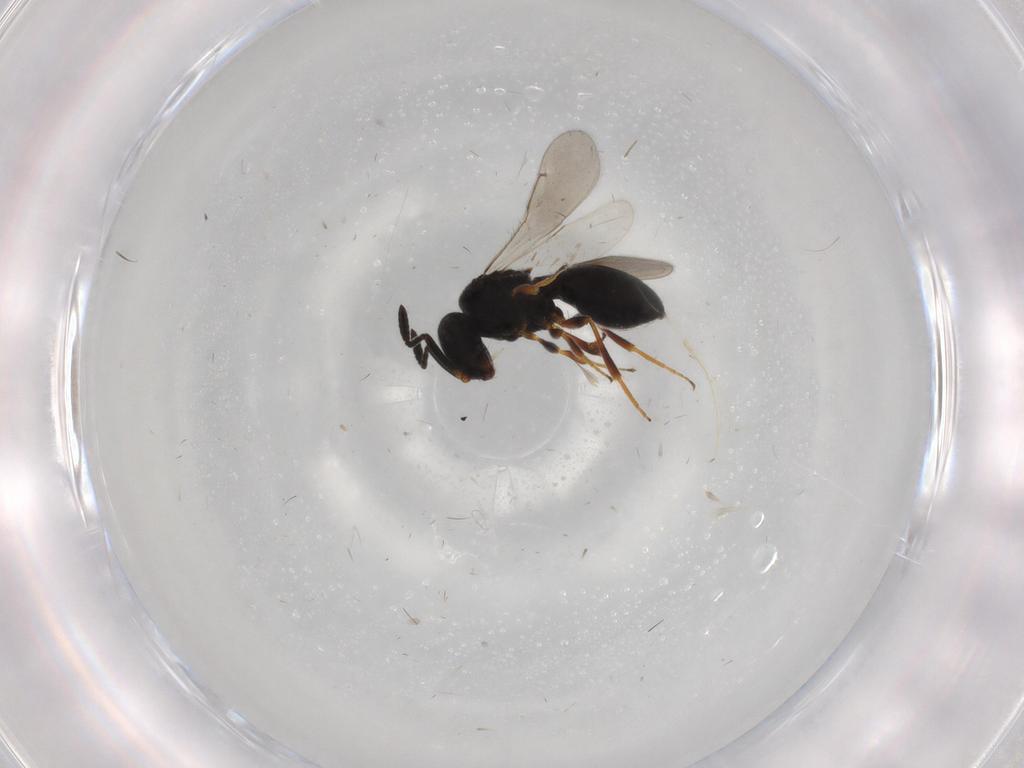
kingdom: Animalia
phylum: Arthropoda
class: Insecta
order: Hymenoptera
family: Scelionidae
